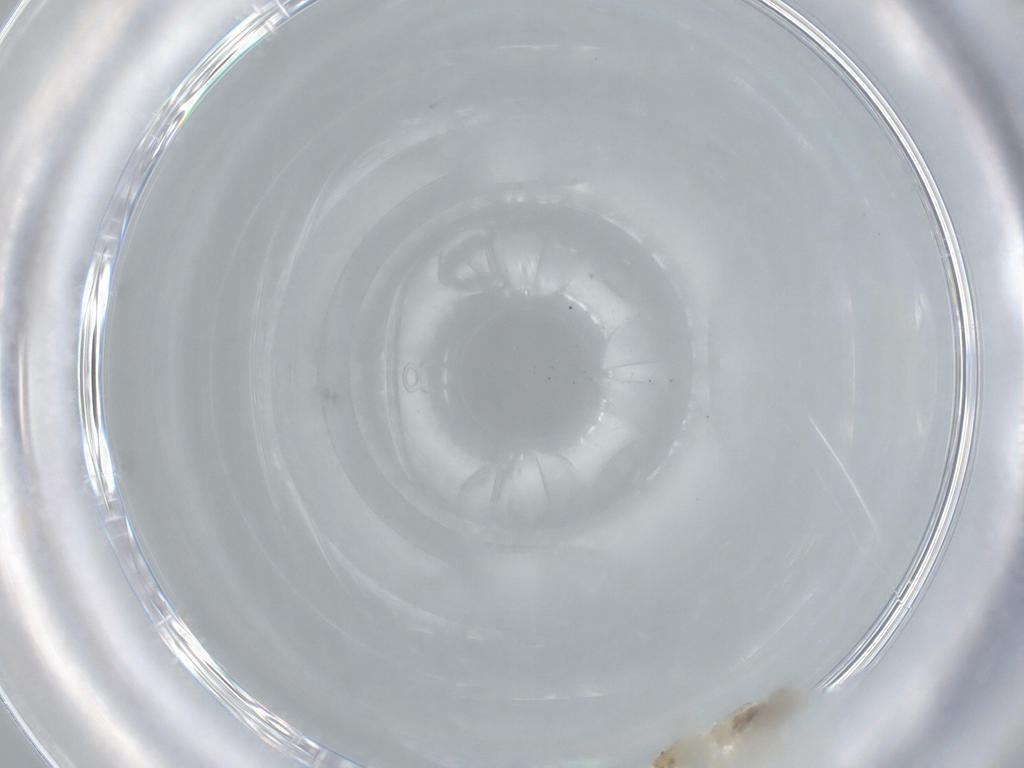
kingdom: Animalia
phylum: Arthropoda
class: Insecta
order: Diptera
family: Chironomidae
